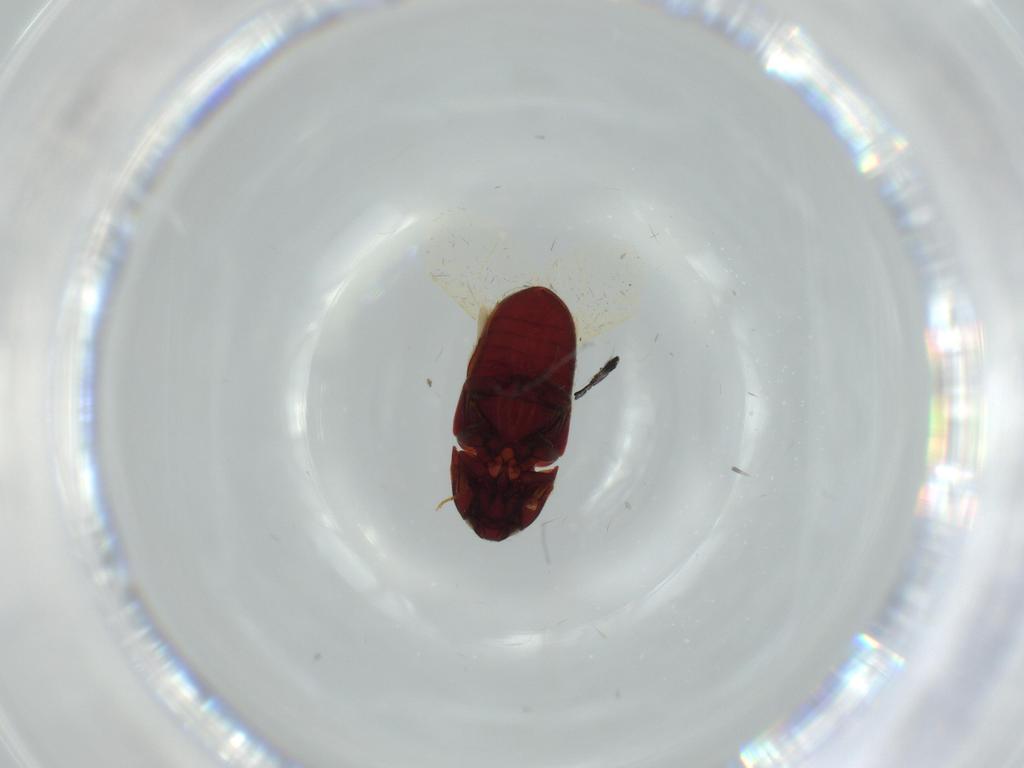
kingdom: Animalia
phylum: Arthropoda
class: Insecta
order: Coleoptera
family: Throscidae
